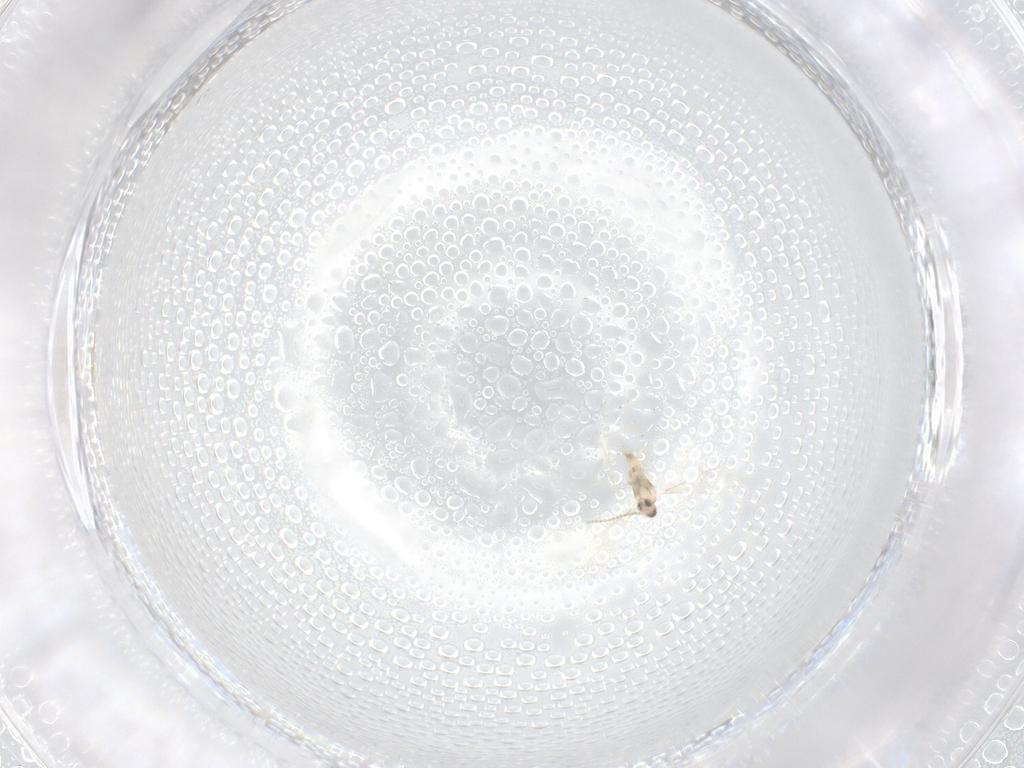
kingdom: Animalia
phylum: Arthropoda
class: Insecta
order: Diptera
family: Cecidomyiidae
